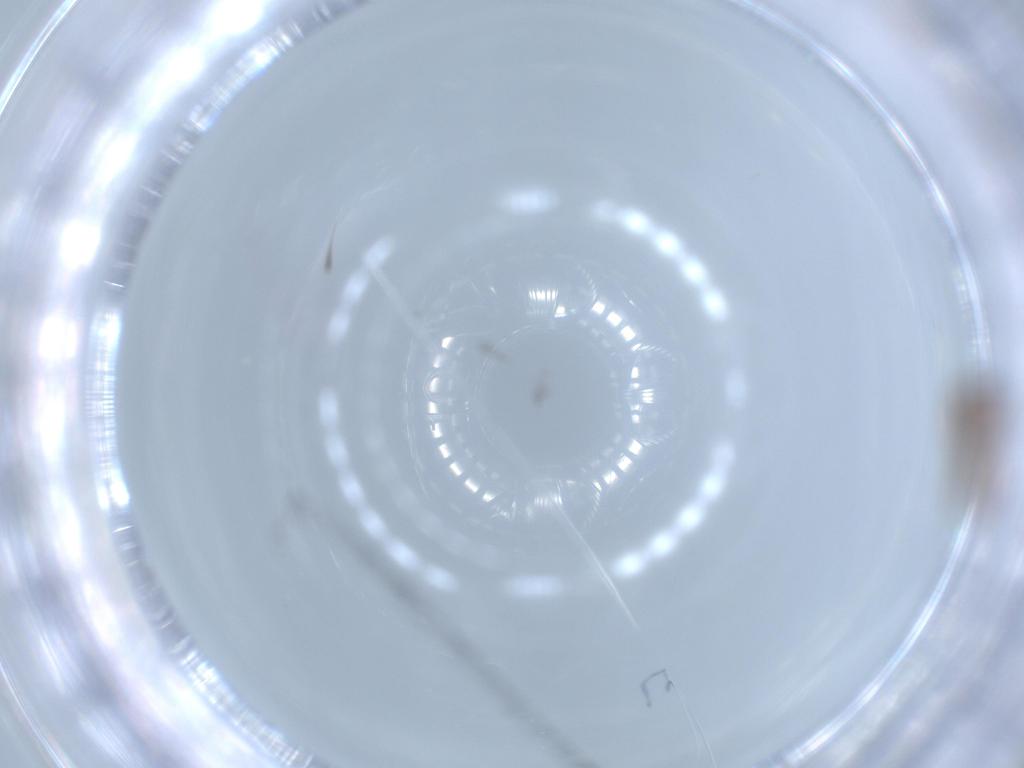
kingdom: Animalia
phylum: Arthropoda
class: Insecta
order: Hymenoptera
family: Scelionidae
